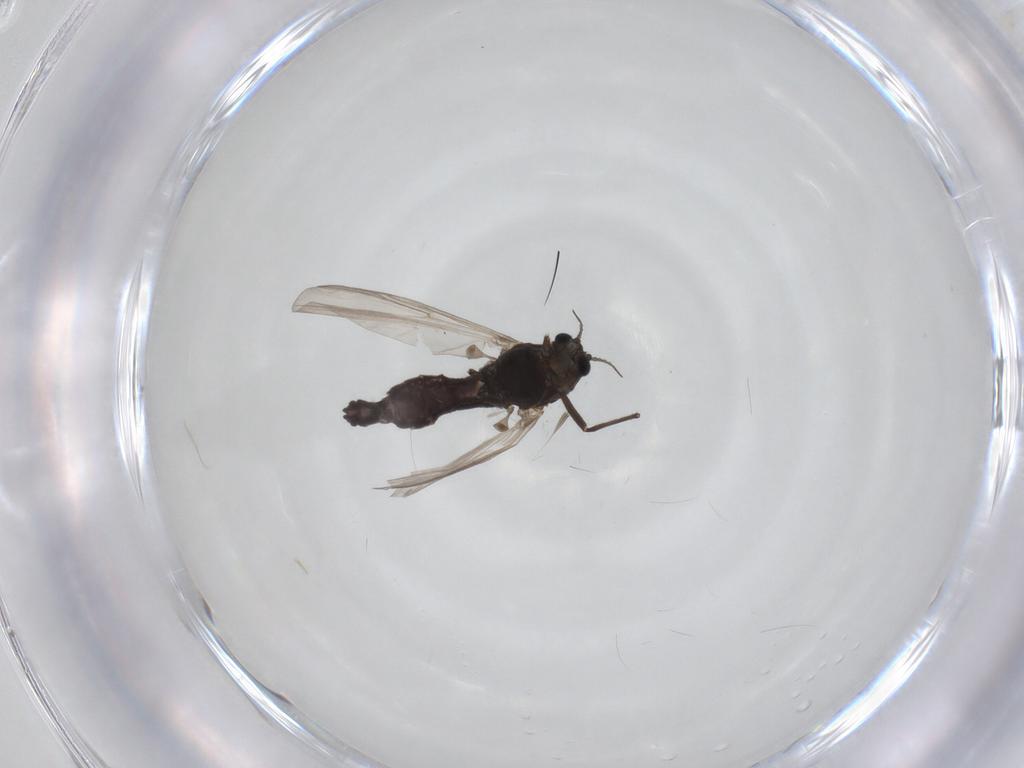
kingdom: Animalia
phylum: Arthropoda
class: Insecta
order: Diptera
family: Chironomidae
